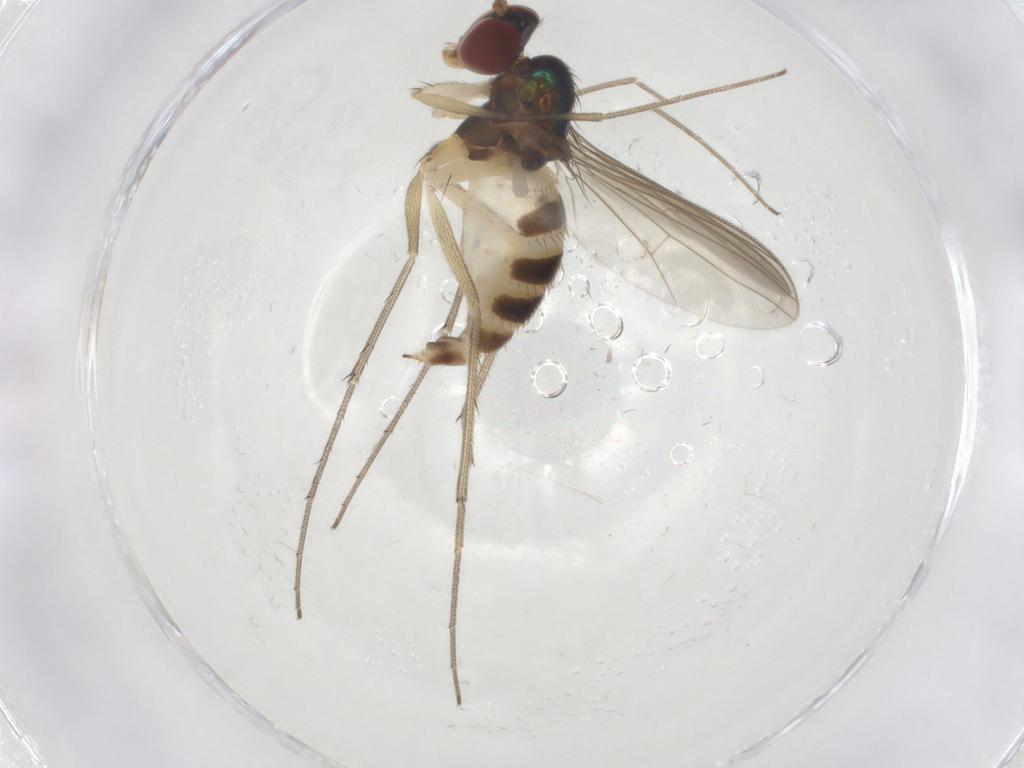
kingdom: Animalia
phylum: Arthropoda
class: Insecta
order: Diptera
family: Dolichopodidae
